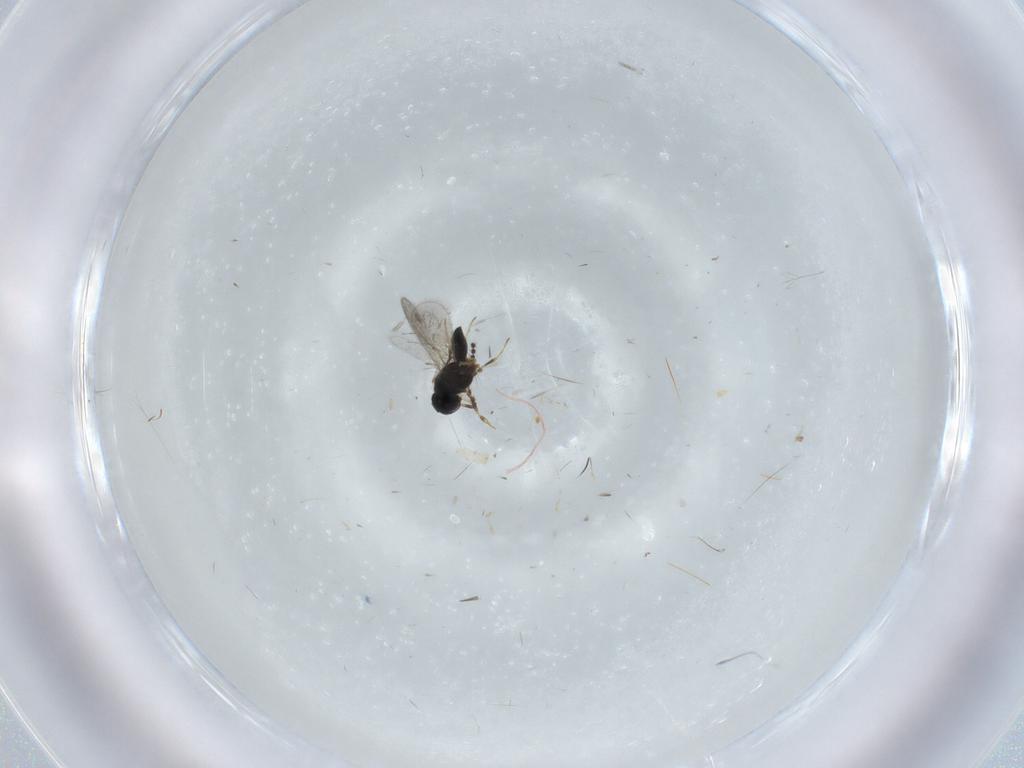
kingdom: Animalia
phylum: Arthropoda
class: Insecta
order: Hymenoptera
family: Scelionidae
